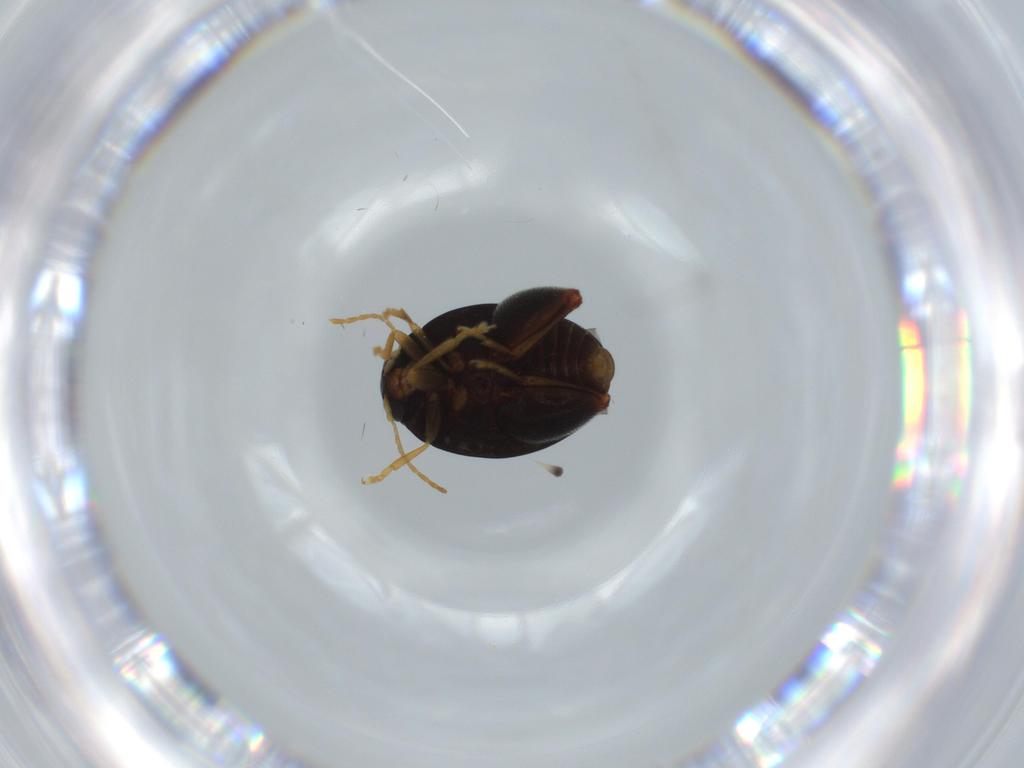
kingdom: Animalia
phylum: Arthropoda
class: Insecta
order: Coleoptera
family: Chrysomelidae
